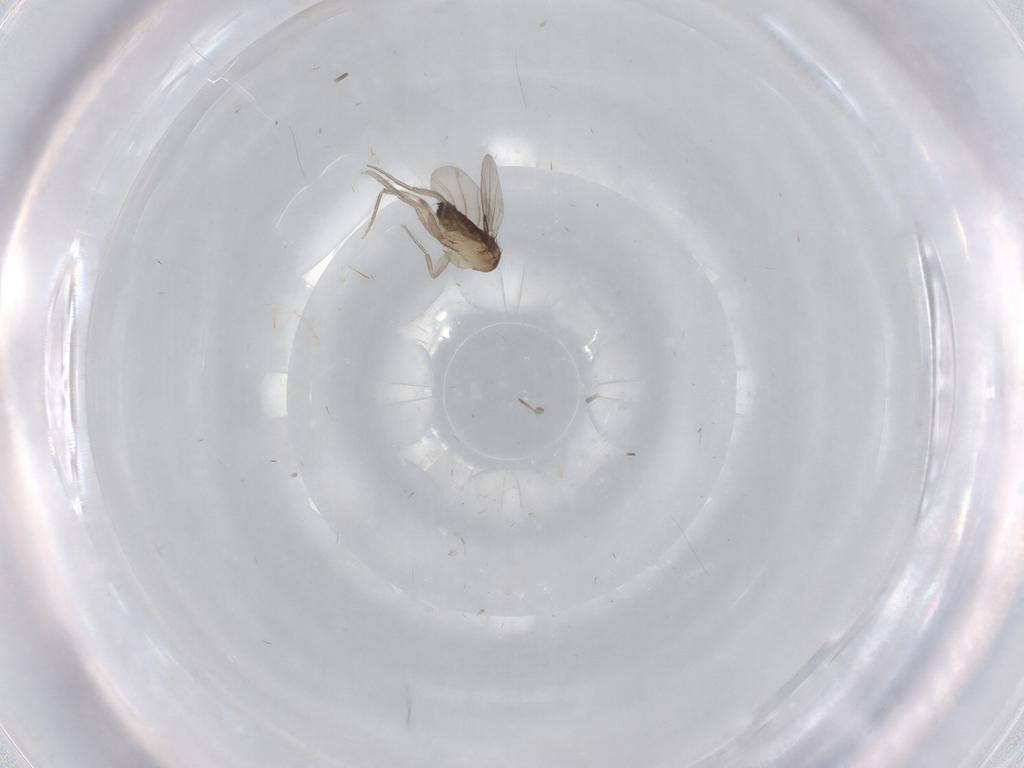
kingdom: Animalia
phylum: Arthropoda
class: Insecta
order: Diptera
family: Phoridae
